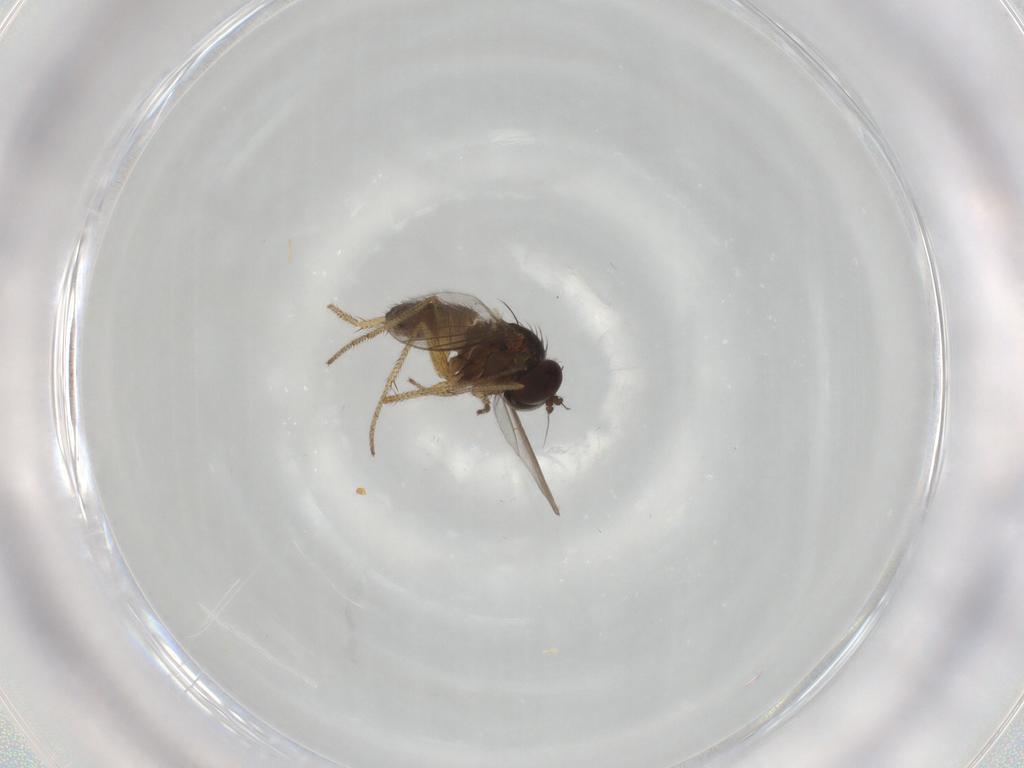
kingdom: Animalia
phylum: Arthropoda
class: Insecta
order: Diptera
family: Dolichopodidae
